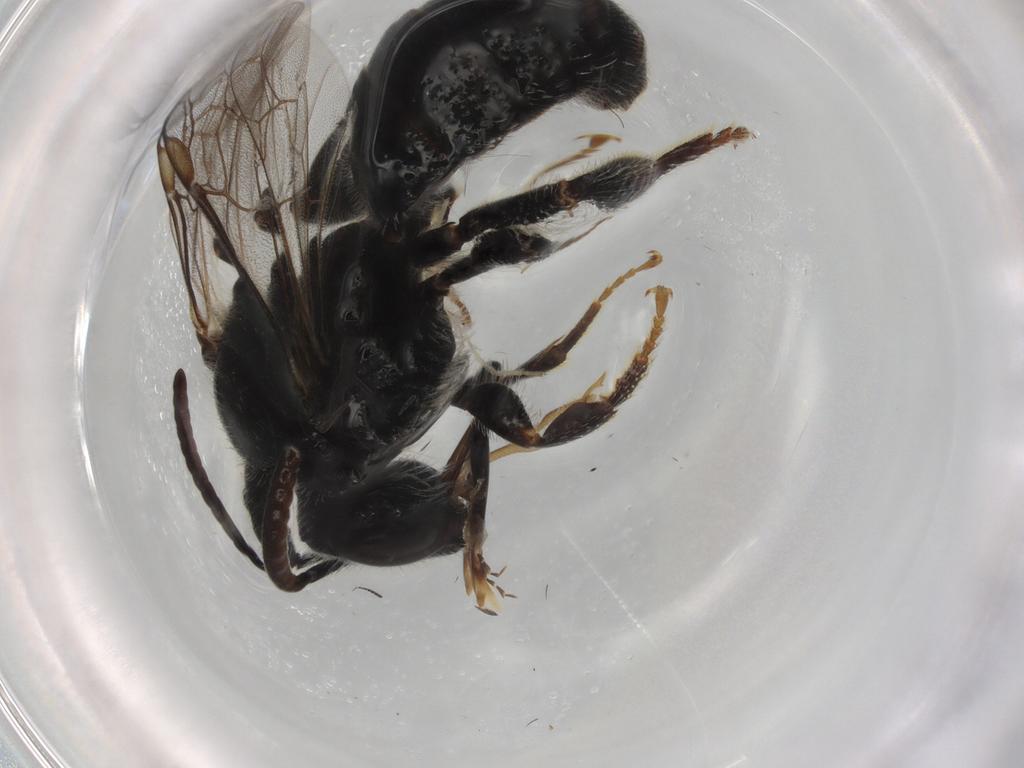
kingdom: Animalia
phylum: Arthropoda
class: Insecta
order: Hymenoptera
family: Halictidae
